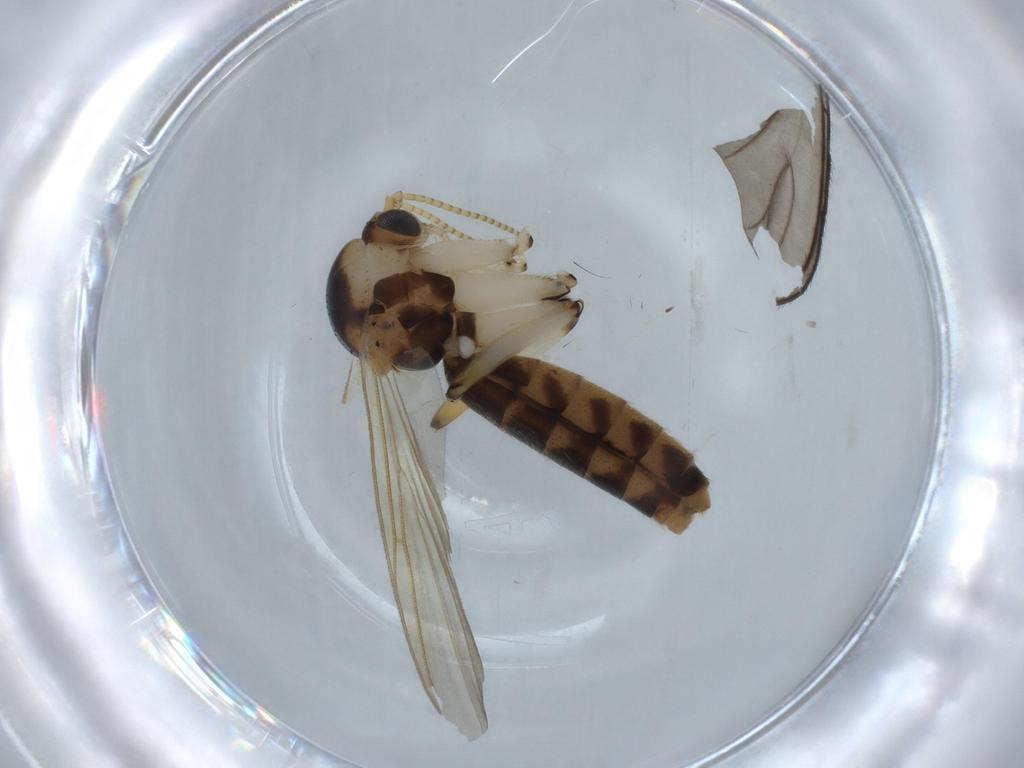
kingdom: Animalia
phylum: Arthropoda
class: Insecta
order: Diptera
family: Mycetophilidae
